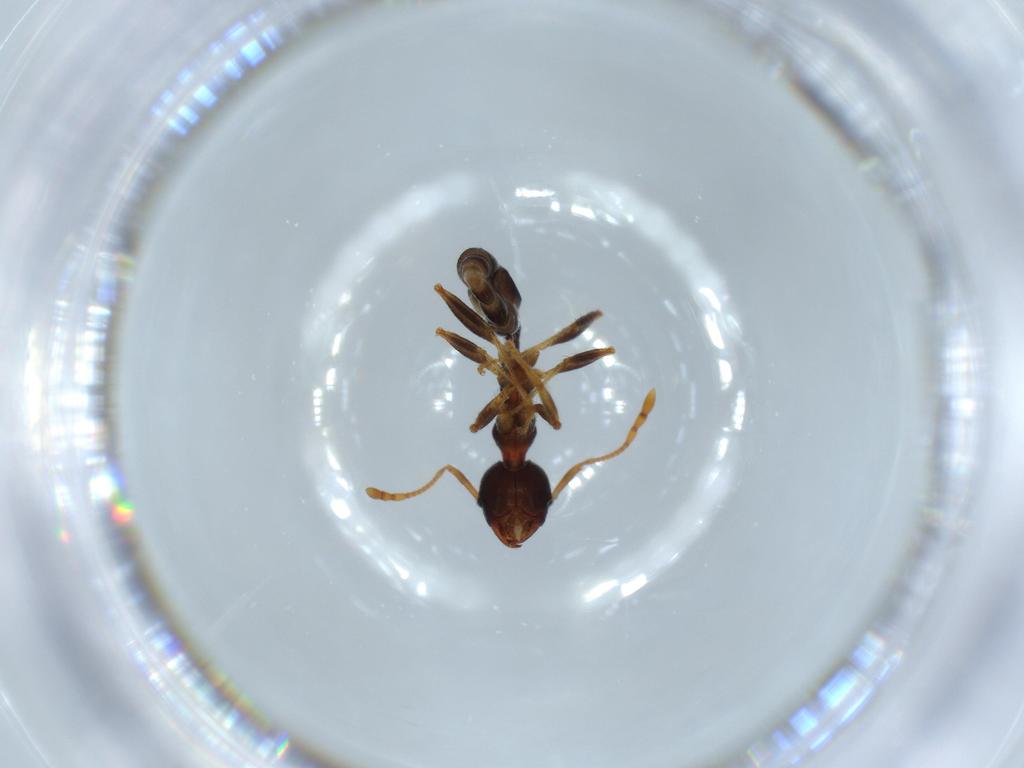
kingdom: Animalia
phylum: Arthropoda
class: Insecta
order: Hymenoptera
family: Formicidae
